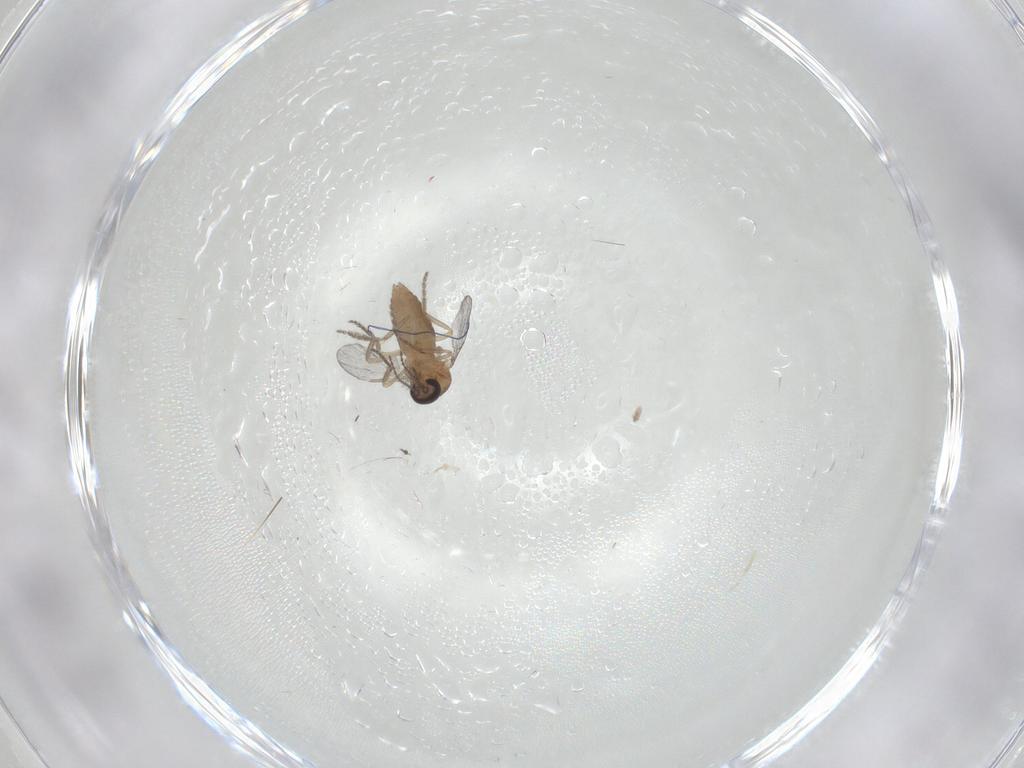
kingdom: Animalia
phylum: Arthropoda
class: Insecta
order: Diptera
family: Ceratopogonidae
